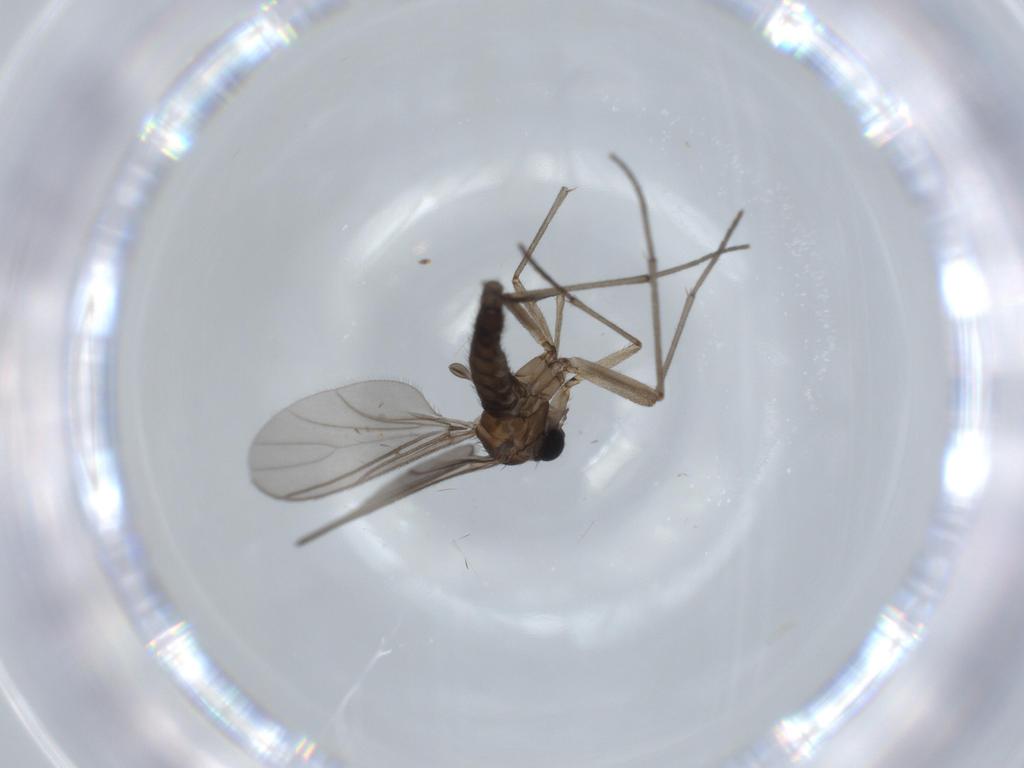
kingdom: Animalia
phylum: Arthropoda
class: Insecta
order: Diptera
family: Sciaridae
